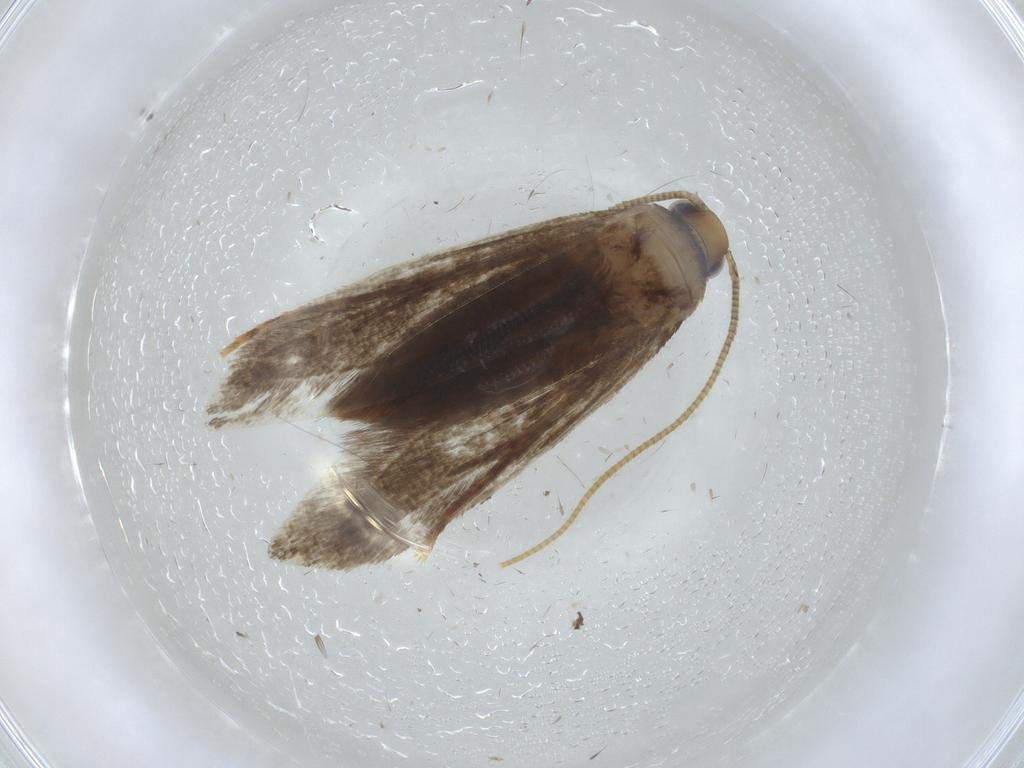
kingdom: Animalia
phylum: Arthropoda
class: Insecta
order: Lepidoptera
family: Tineidae
